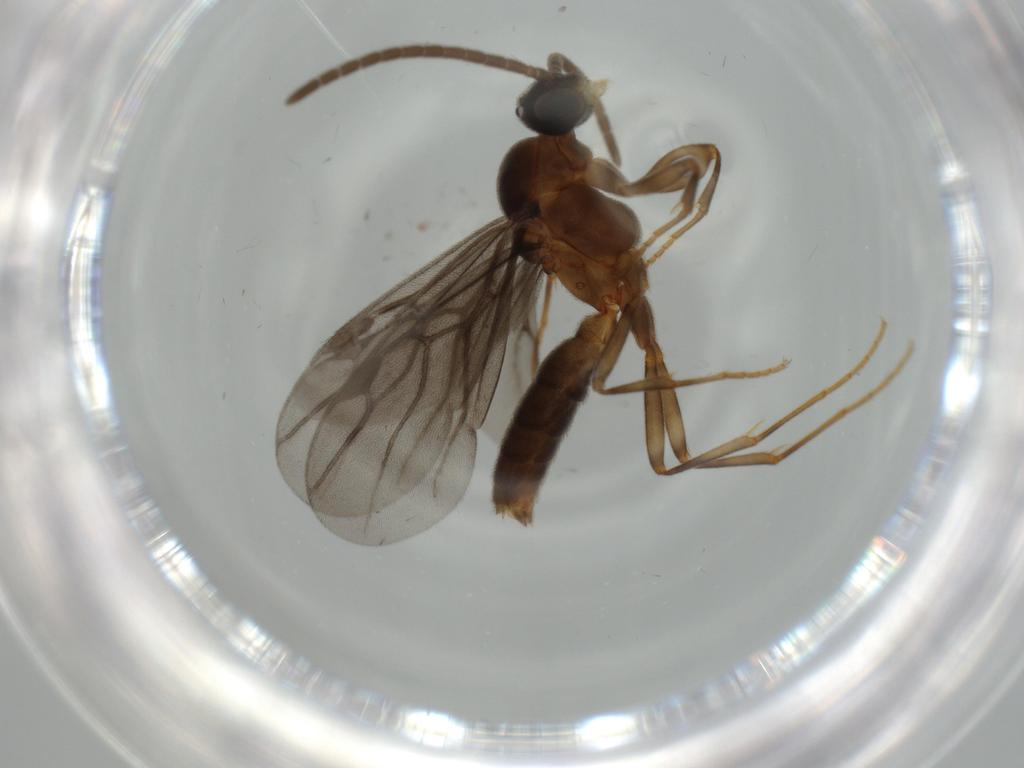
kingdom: Animalia
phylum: Arthropoda
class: Insecta
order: Hymenoptera
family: Formicidae
